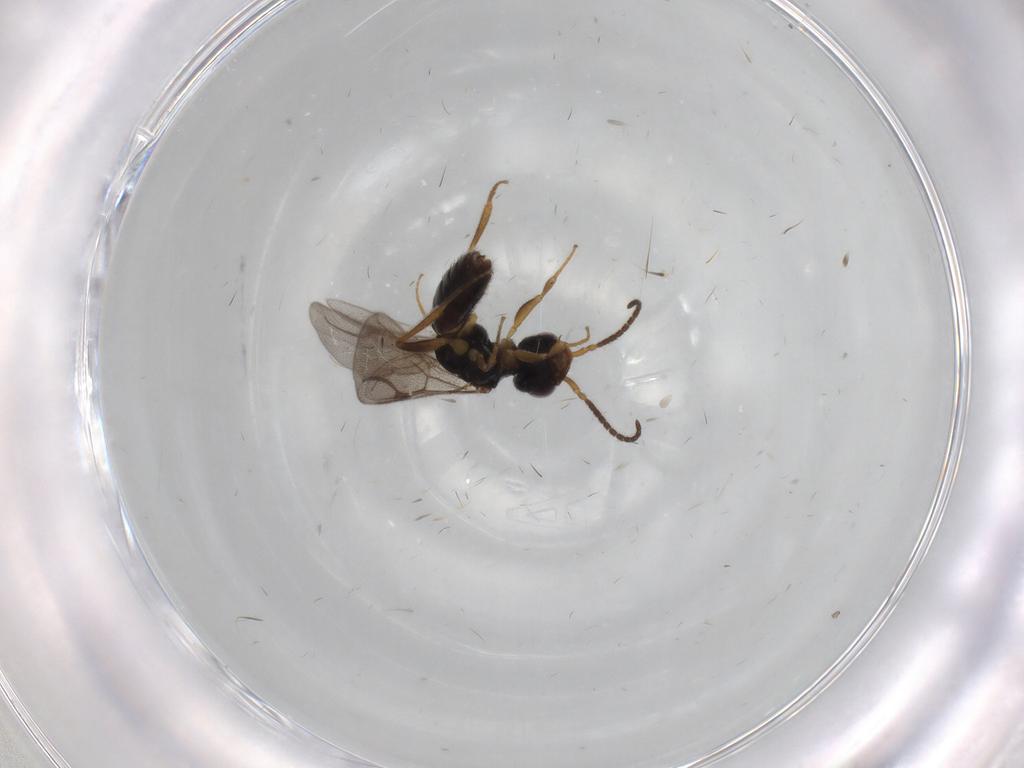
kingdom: Animalia
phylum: Arthropoda
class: Insecta
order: Hymenoptera
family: Bethylidae
